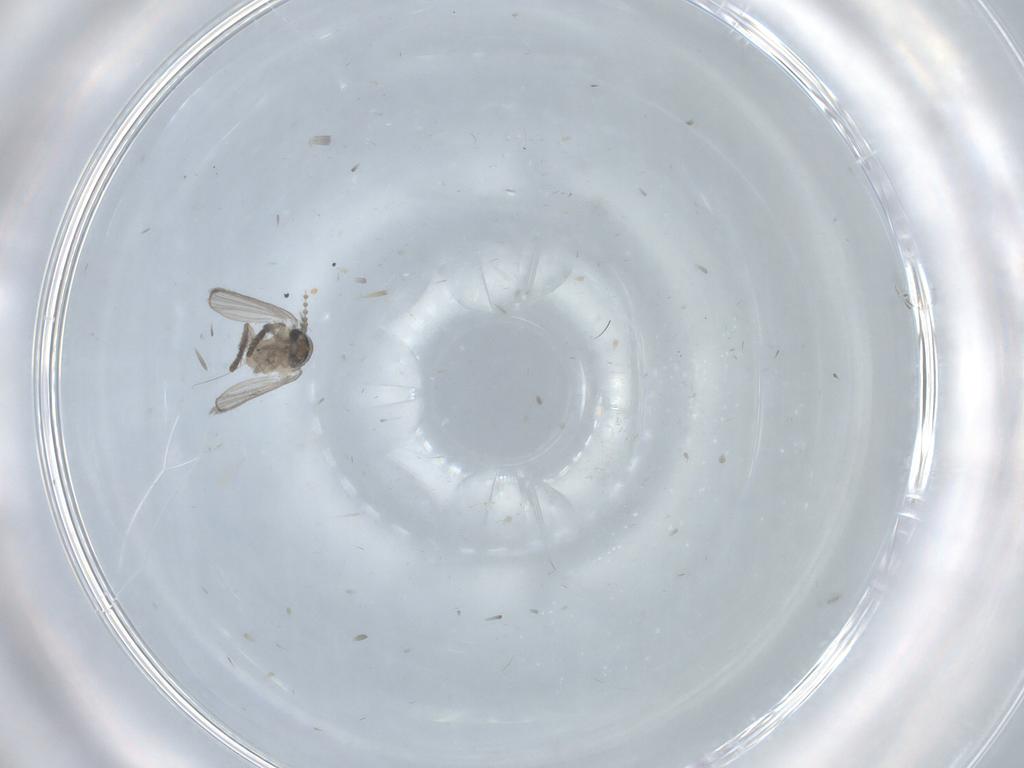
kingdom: Animalia
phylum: Arthropoda
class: Insecta
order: Diptera
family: Psychodidae
